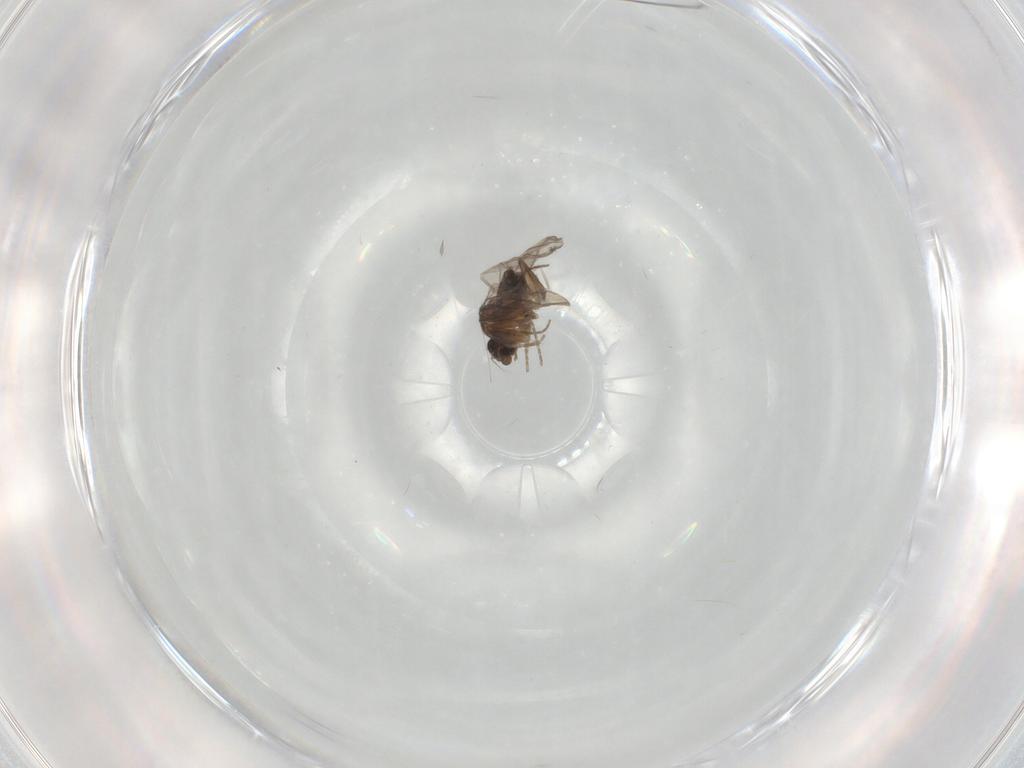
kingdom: Animalia
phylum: Arthropoda
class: Insecta
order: Diptera
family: Phoridae
